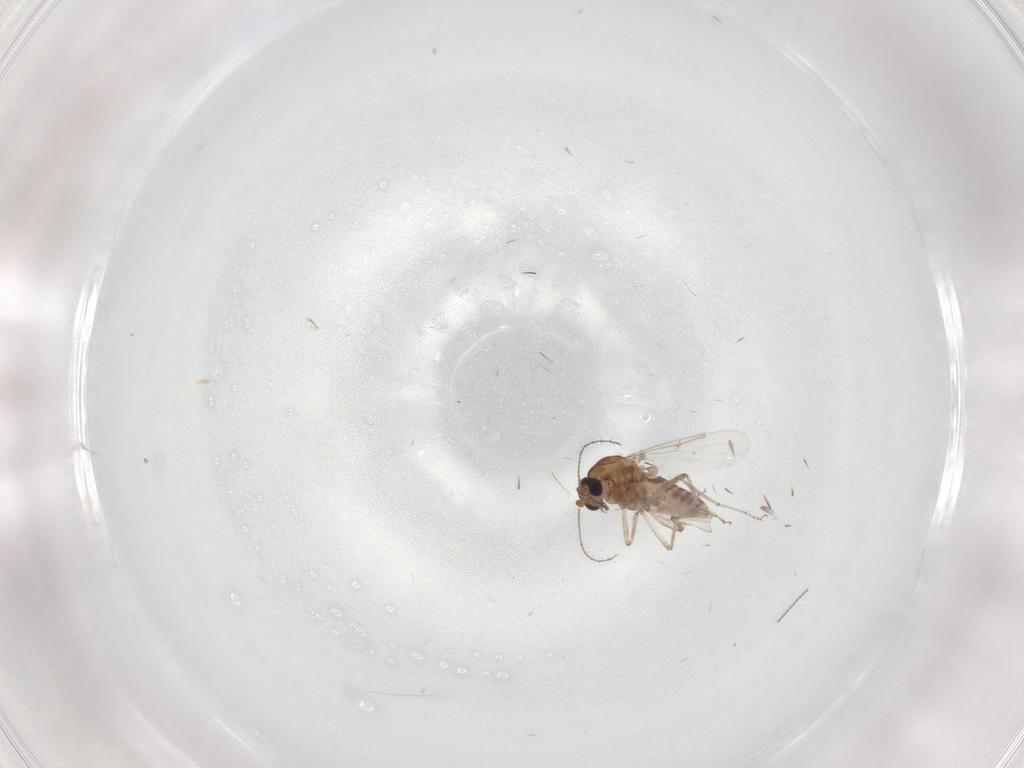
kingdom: Animalia
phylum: Arthropoda
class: Insecta
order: Diptera
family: Ceratopogonidae
